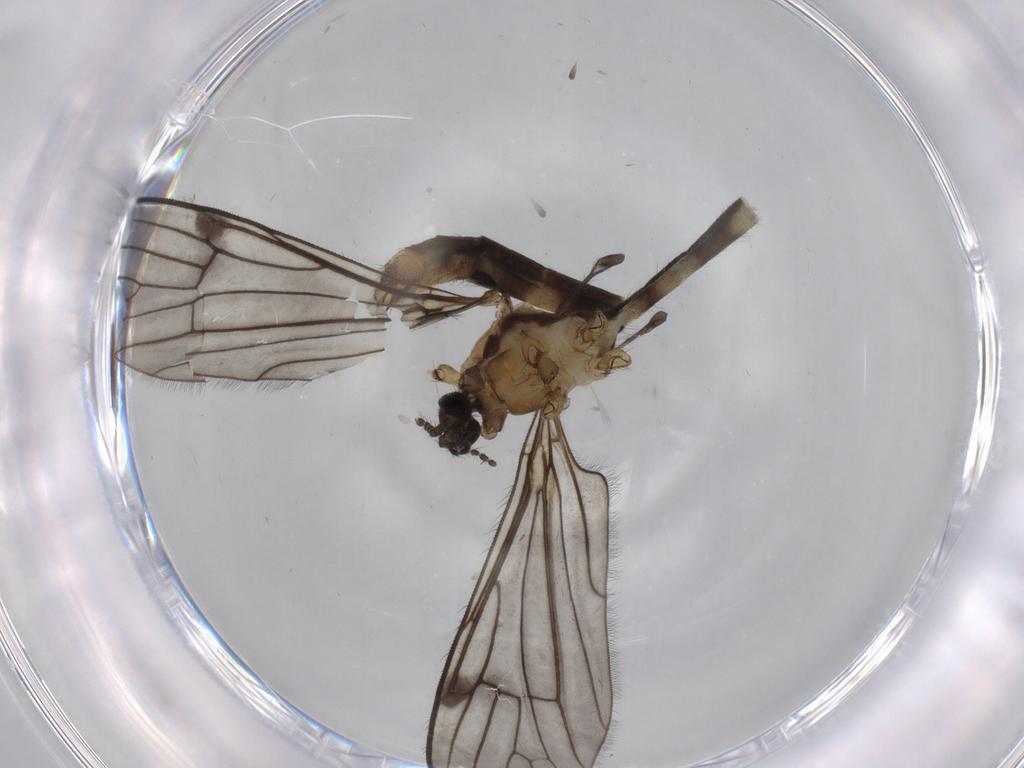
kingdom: Animalia
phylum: Arthropoda
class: Insecta
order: Diptera
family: Limoniidae
